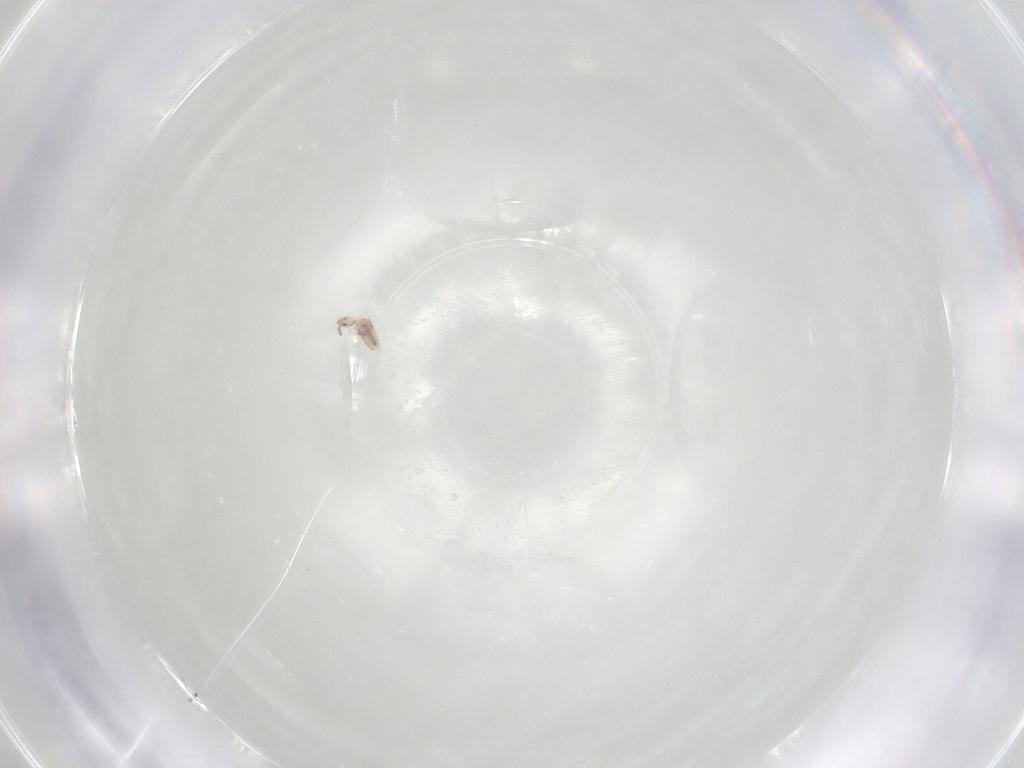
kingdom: Animalia
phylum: Arthropoda
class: Collembola
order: Entomobryomorpha
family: Entomobryidae
